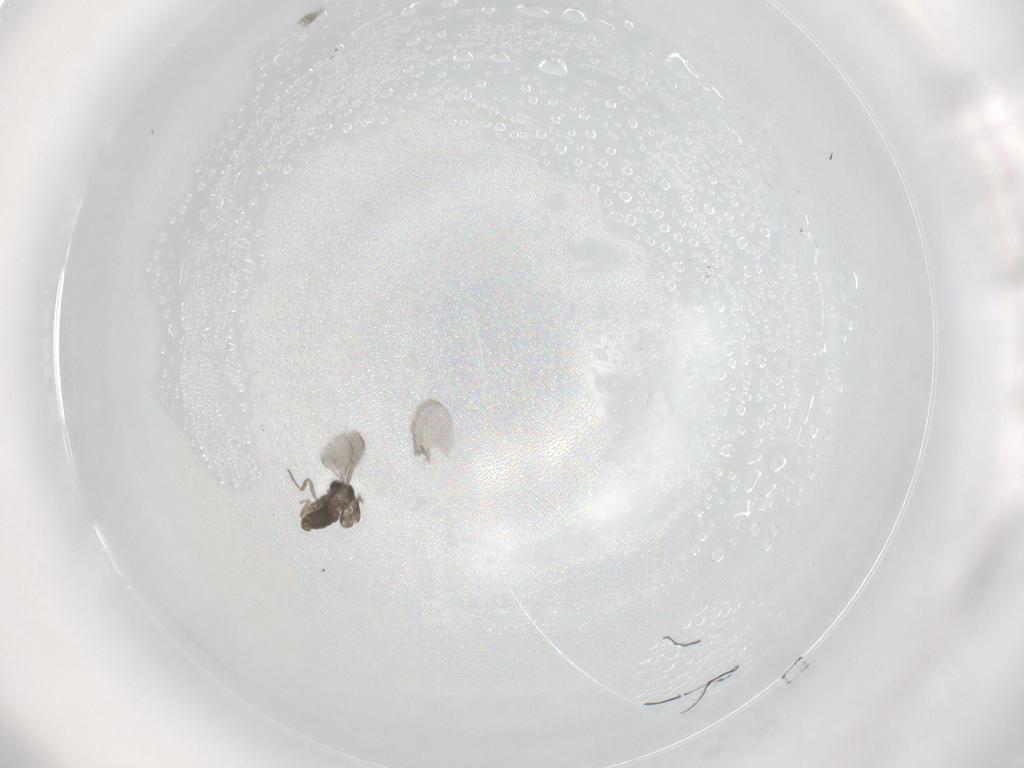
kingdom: Animalia
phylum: Arthropoda
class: Insecta
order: Diptera
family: Chironomidae
